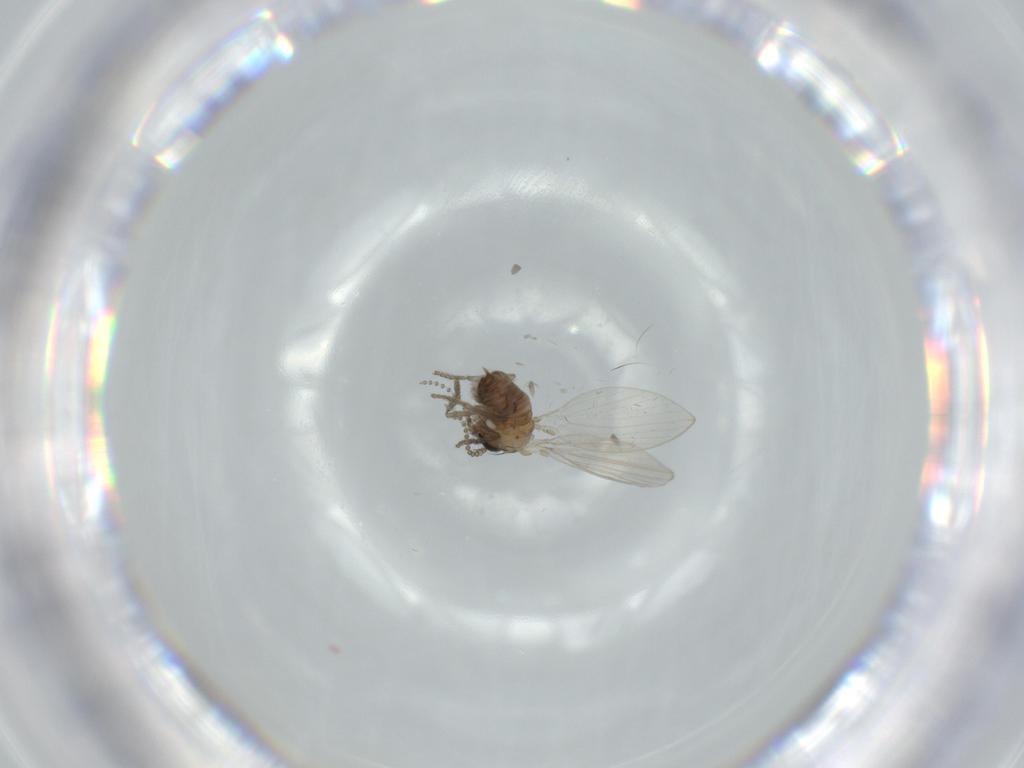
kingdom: Animalia
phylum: Arthropoda
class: Insecta
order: Diptera
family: Psychodidae
